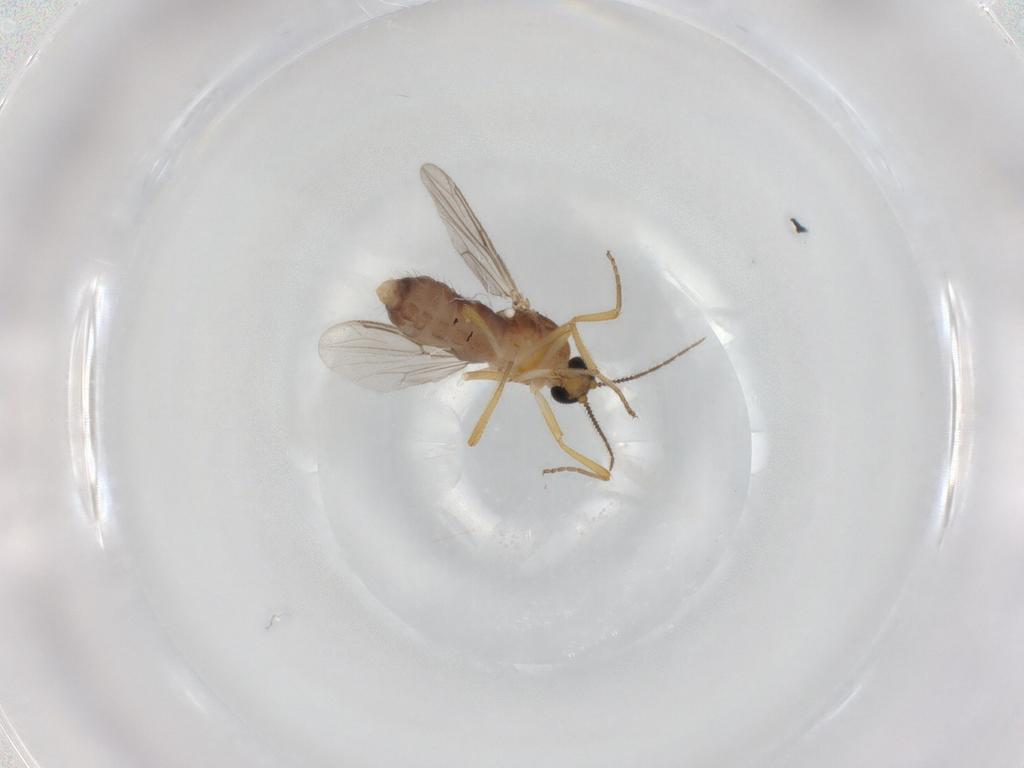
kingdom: Animalia
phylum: Arthropoda
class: Insecta
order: Diptera
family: Ceratopogonidae
